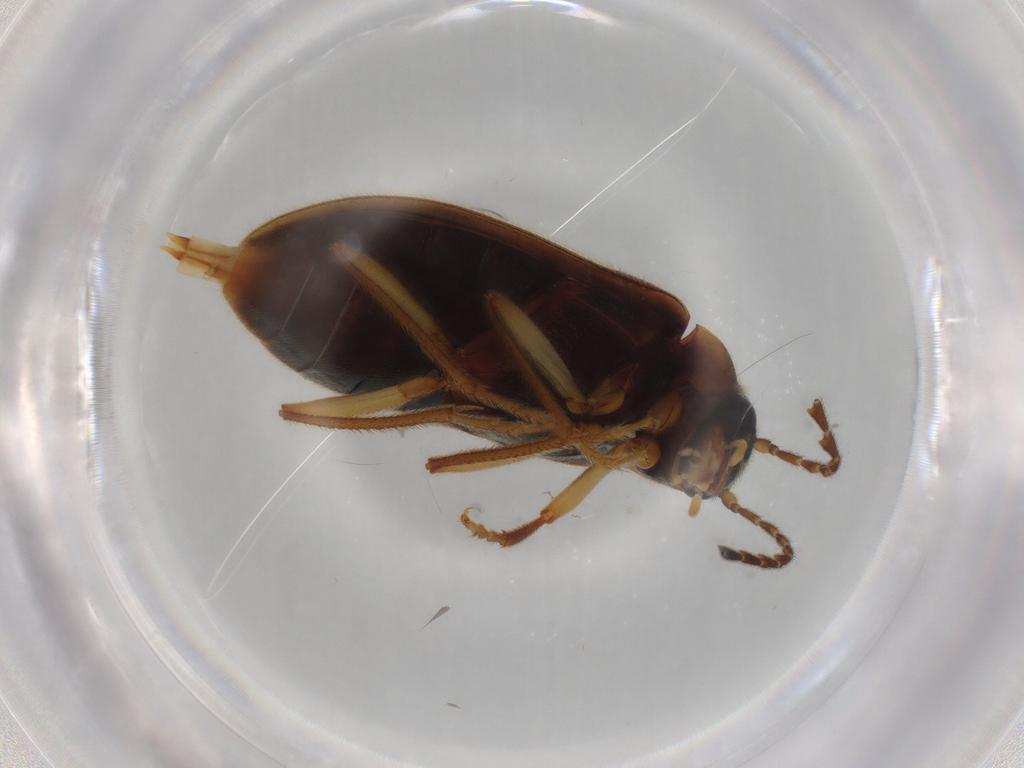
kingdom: Animalia
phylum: Arthropoda
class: Insecta
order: Coleoptera
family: Ptilodactylidae
